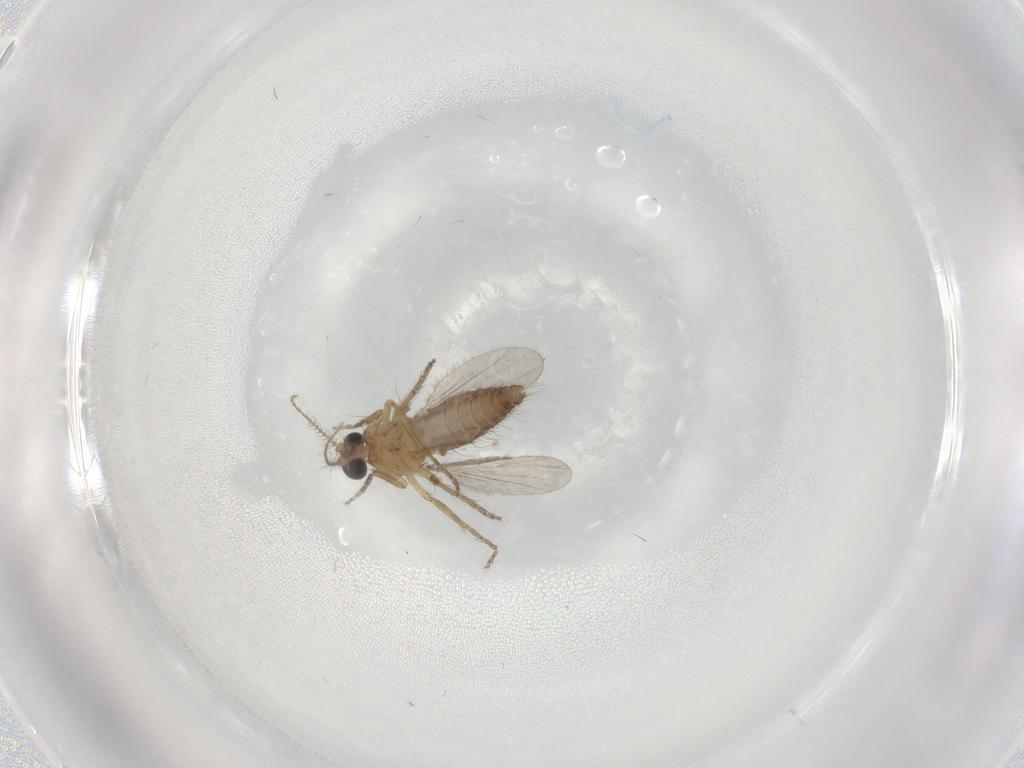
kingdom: Animalia
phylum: Arthropoda
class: Insecta
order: Diptera
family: Ceratopogonidae
